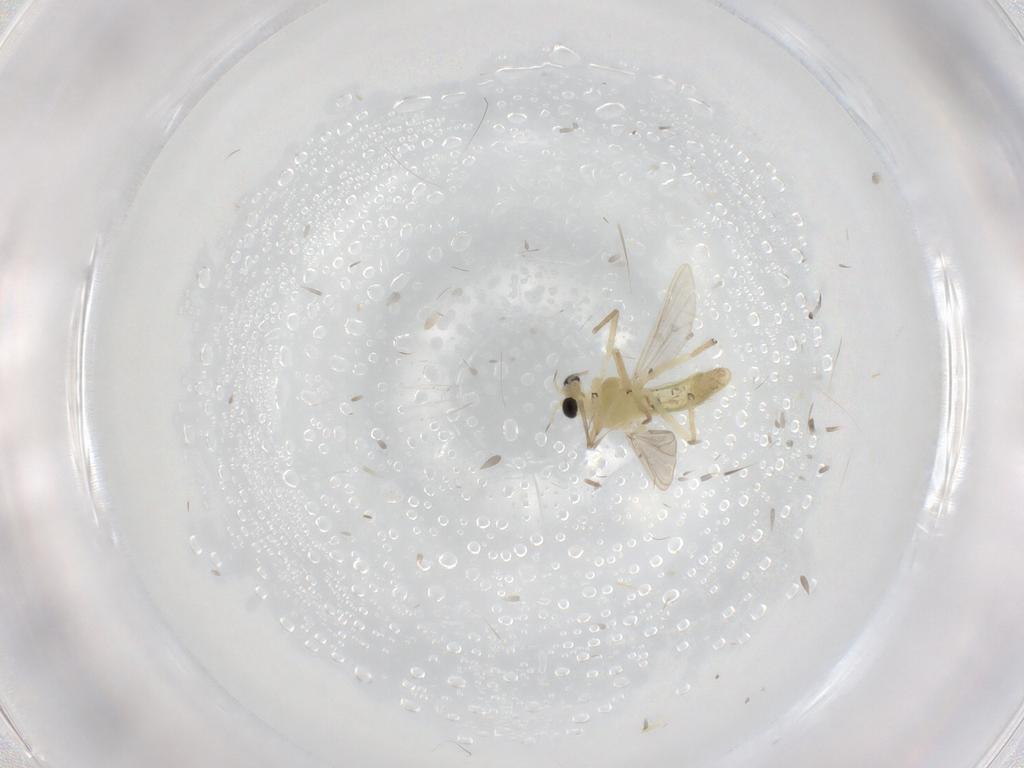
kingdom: Animalia
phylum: Arthropoda
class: Insecta
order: Diptera
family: Chironomidae
